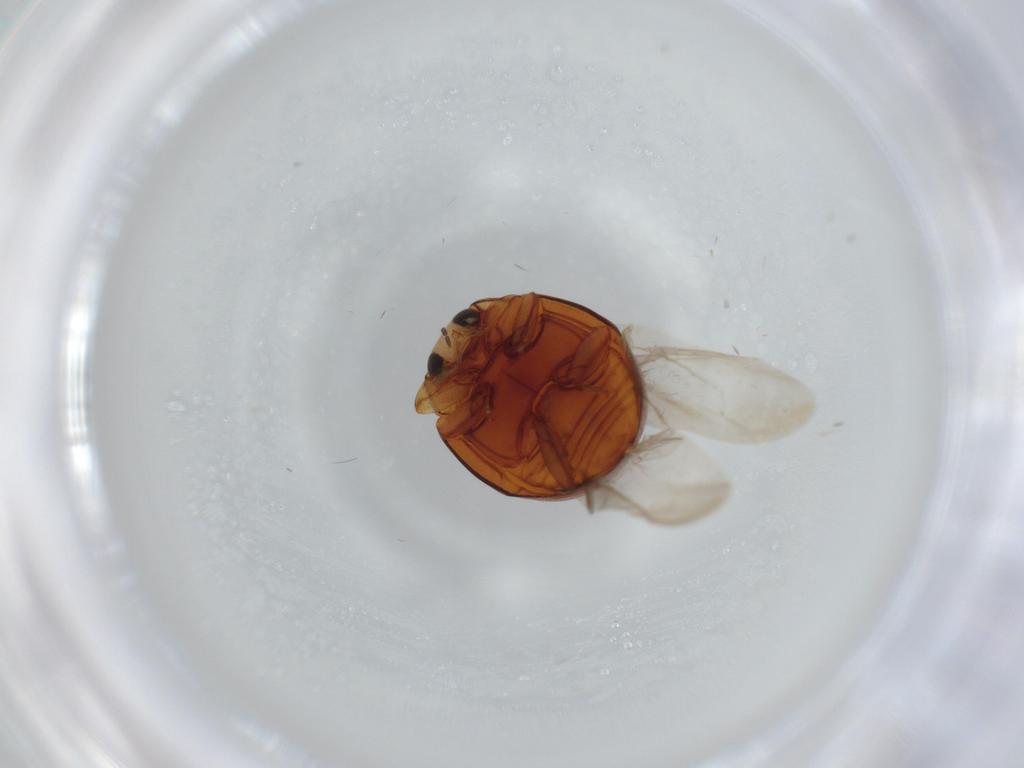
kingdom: Animalia
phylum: Arthropoda
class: Insecta
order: Coleoptera
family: Coccinellidae
